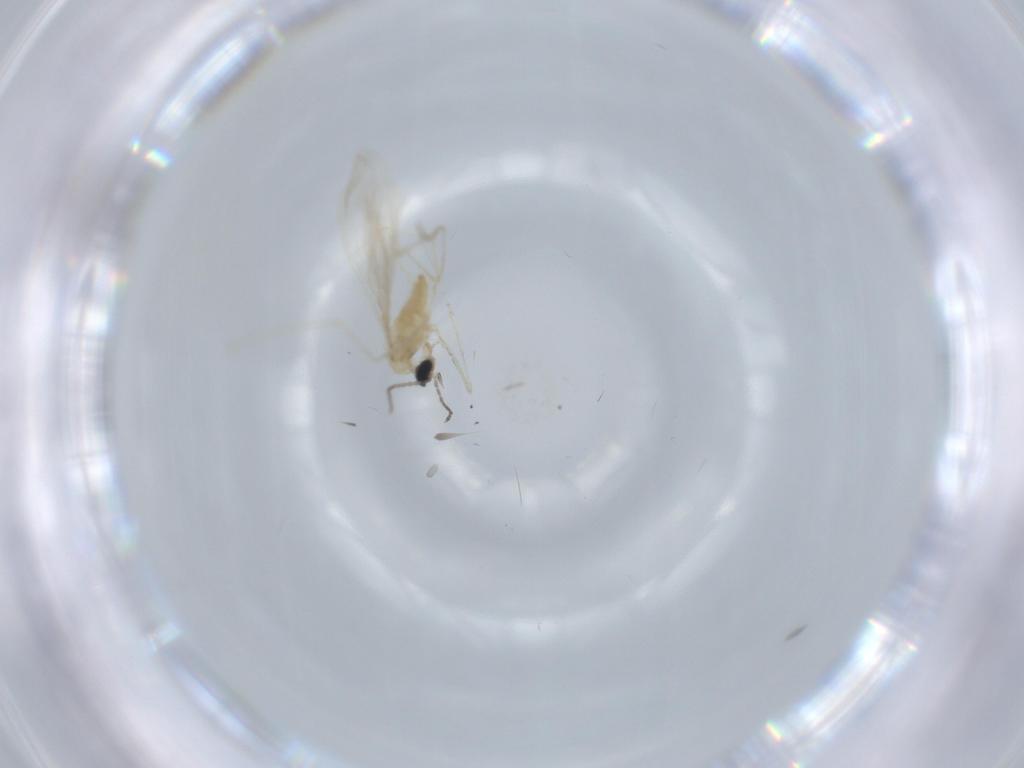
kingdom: Animalia
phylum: Arthropoda
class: Insecta
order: Diptera
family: Cecidomyiidae
